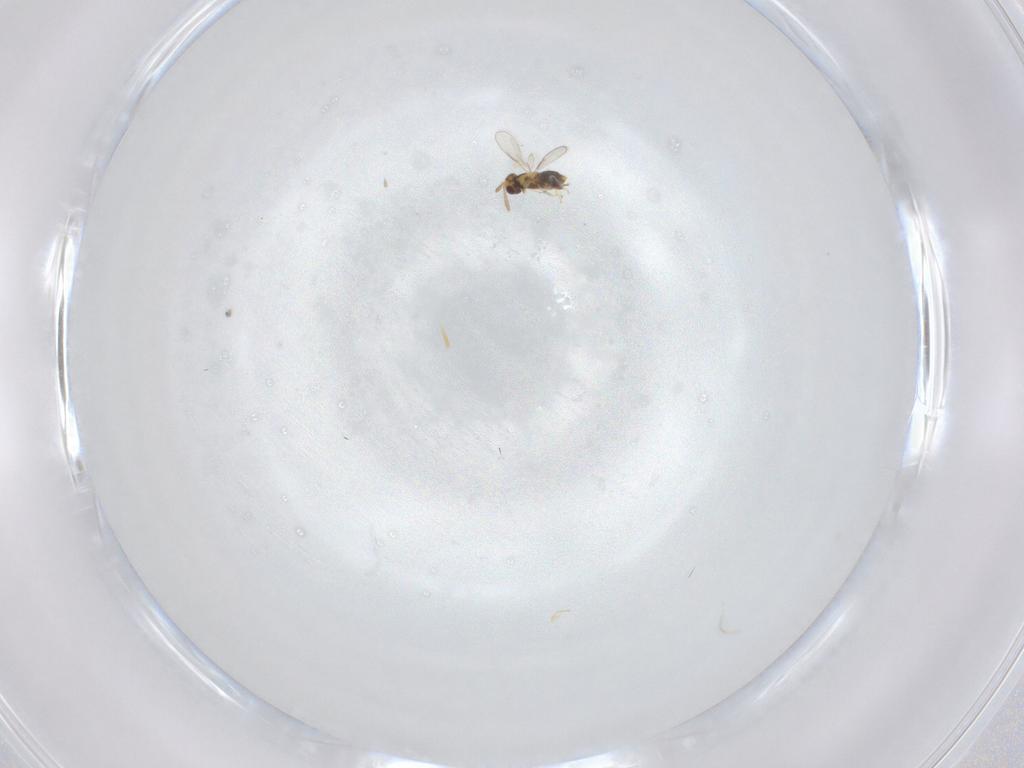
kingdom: Animalia
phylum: Arthropoda
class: Insecta
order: Hymenoptera
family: Aphelinidae
